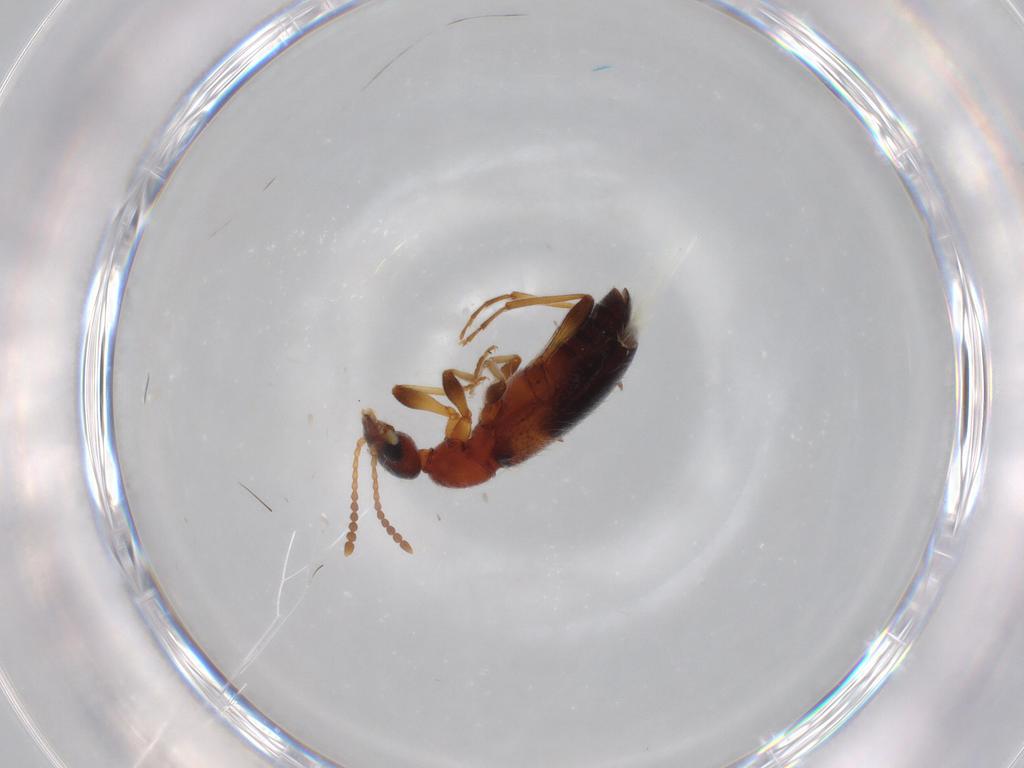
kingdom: Animalia
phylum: Arthropoda
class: Insecta
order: Coleoptera
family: Anthicidae
